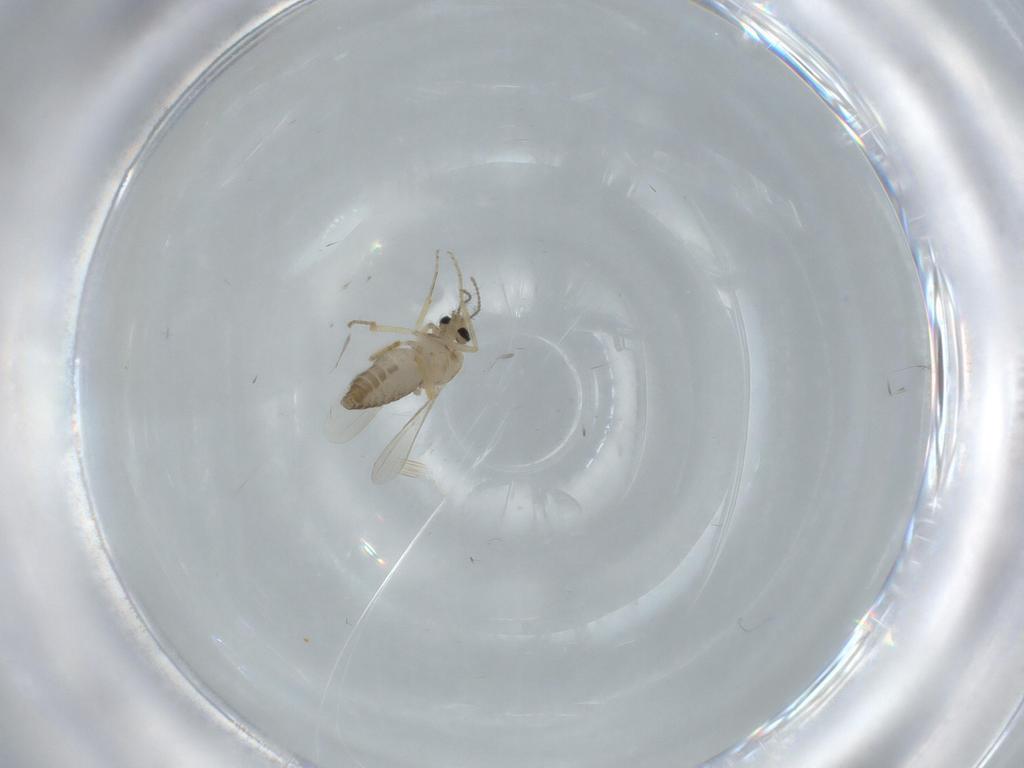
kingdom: Animalia
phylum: Arthropoda
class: Insecta
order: Diptera
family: Ceratopogonidae
